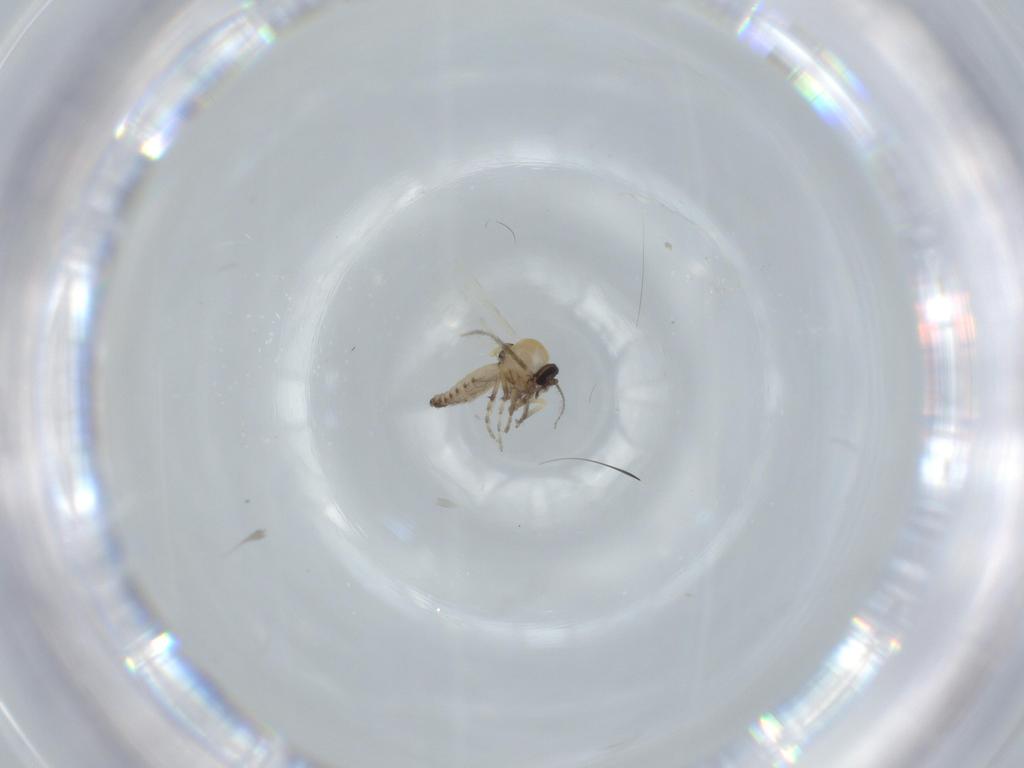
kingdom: Animalia
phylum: Arthropoda
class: Insecta
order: Diptera
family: Ceratopogonidae
